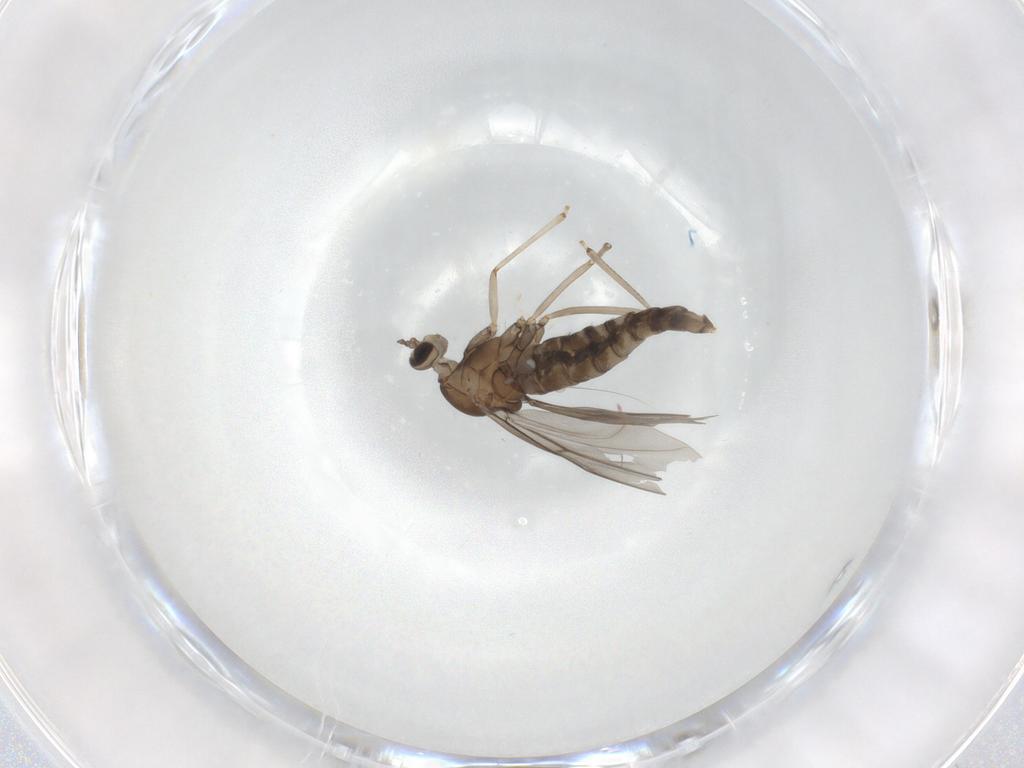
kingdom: Animalia
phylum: Arthropoda
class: Insecta
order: Diptera
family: Cecidomyiidae
